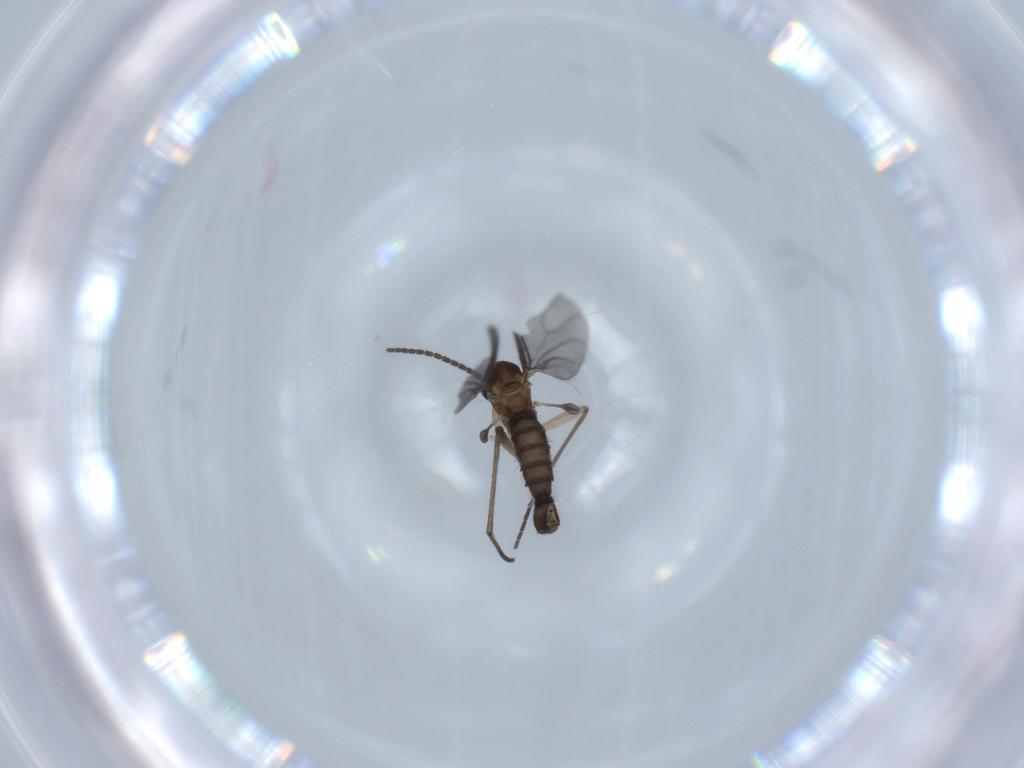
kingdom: Animalia
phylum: Arthropoda
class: Insecta
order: Diptera
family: Sciaridae
